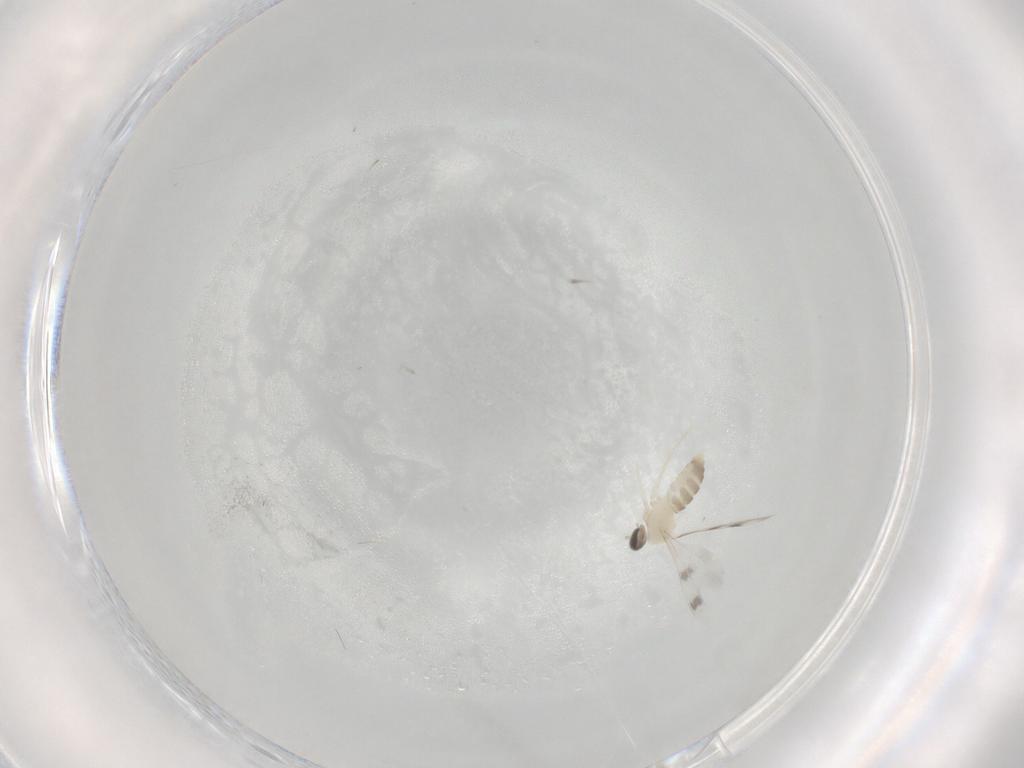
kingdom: Animalia
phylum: Arthropoda
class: Insecta
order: Diptera
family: Cecidomyiidae
